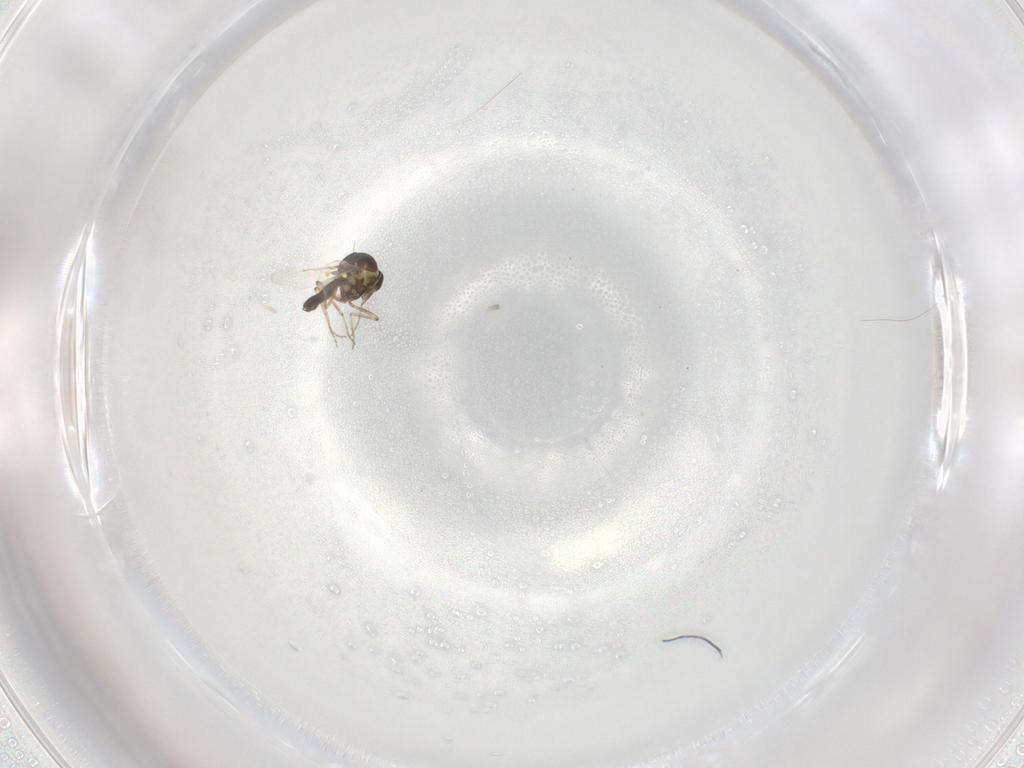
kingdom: Animalia
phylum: Arthropoda
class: Insecta
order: Diptera
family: Ceratopogonidae
